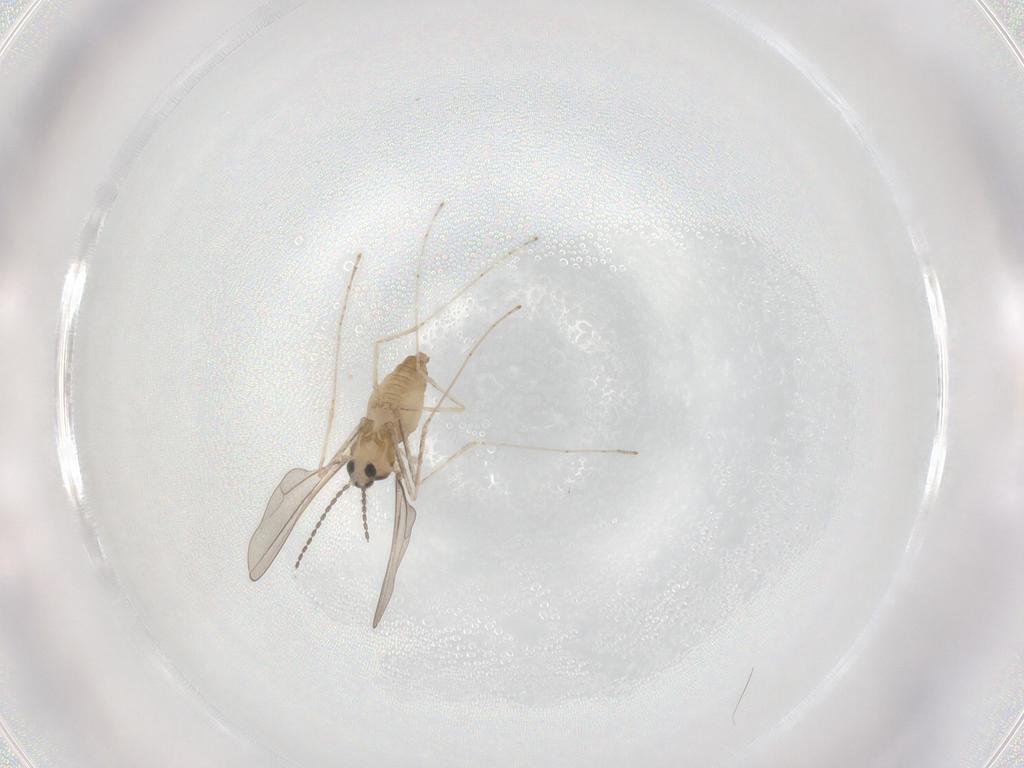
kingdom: Animalia
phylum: Arthropoda
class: Insecta
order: Diptera
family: Cecidomyiidae
